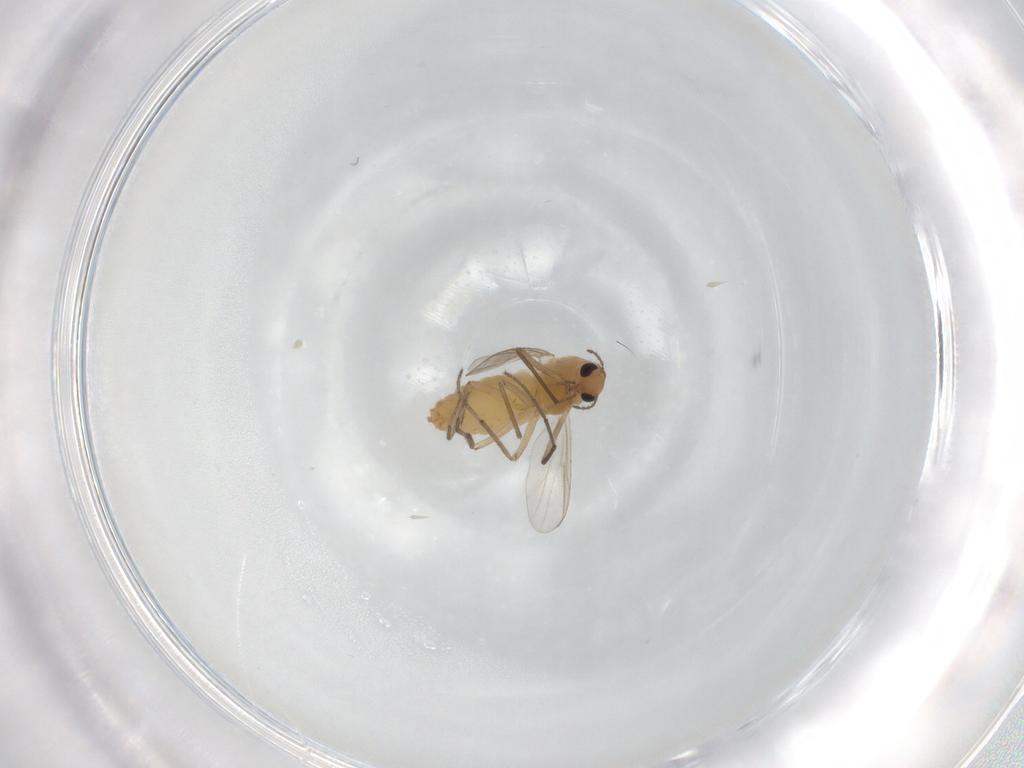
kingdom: Animalia
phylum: Arthropoda
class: Insecta
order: Diptera
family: Chironomidae
